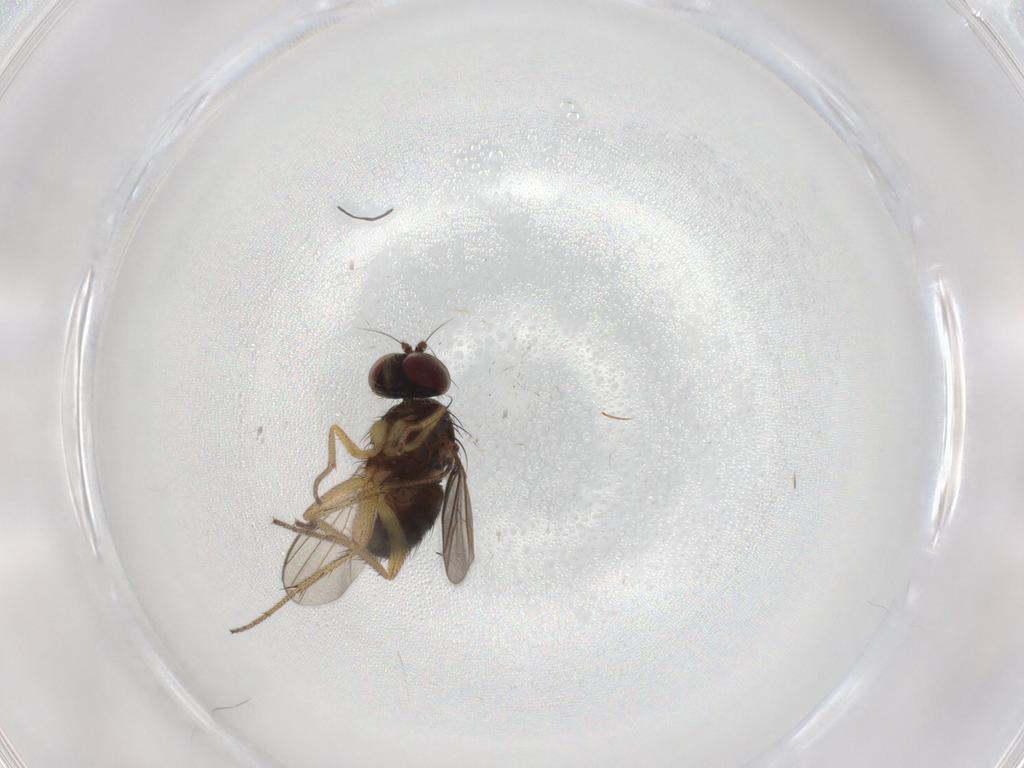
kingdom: Animalia
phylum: Arthropoda
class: Insecta
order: Diptera
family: Dolichopodidae
